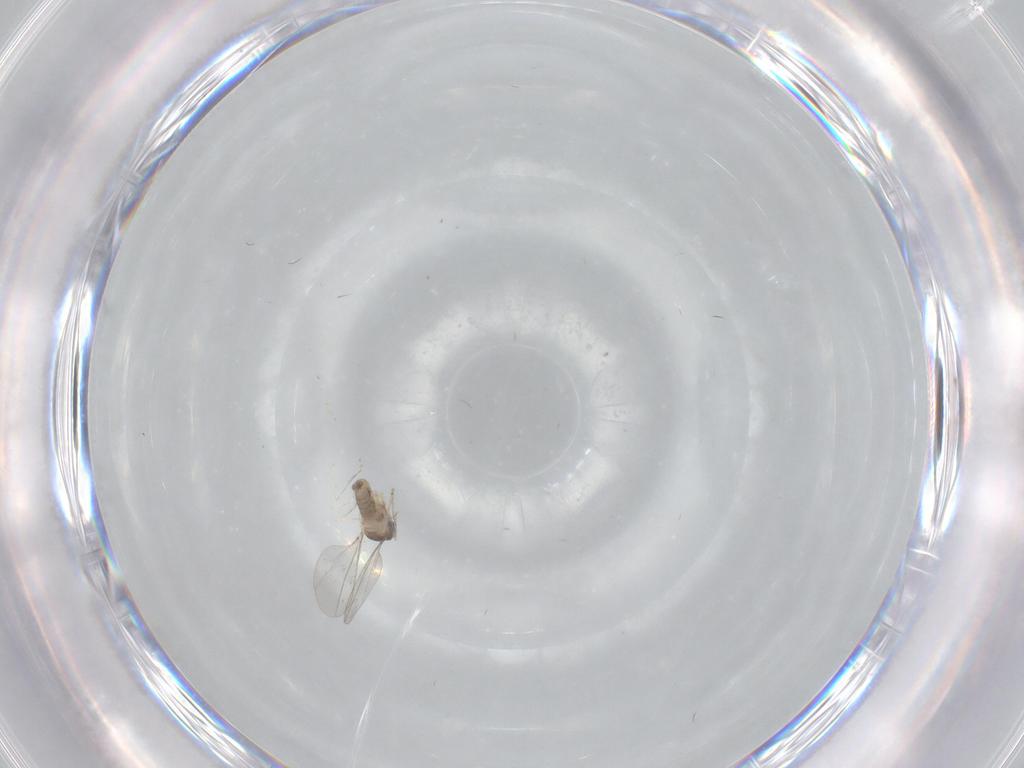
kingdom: Animalia
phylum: Arthropoda
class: Insecta
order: Diptera
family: Cecidomyiidae
